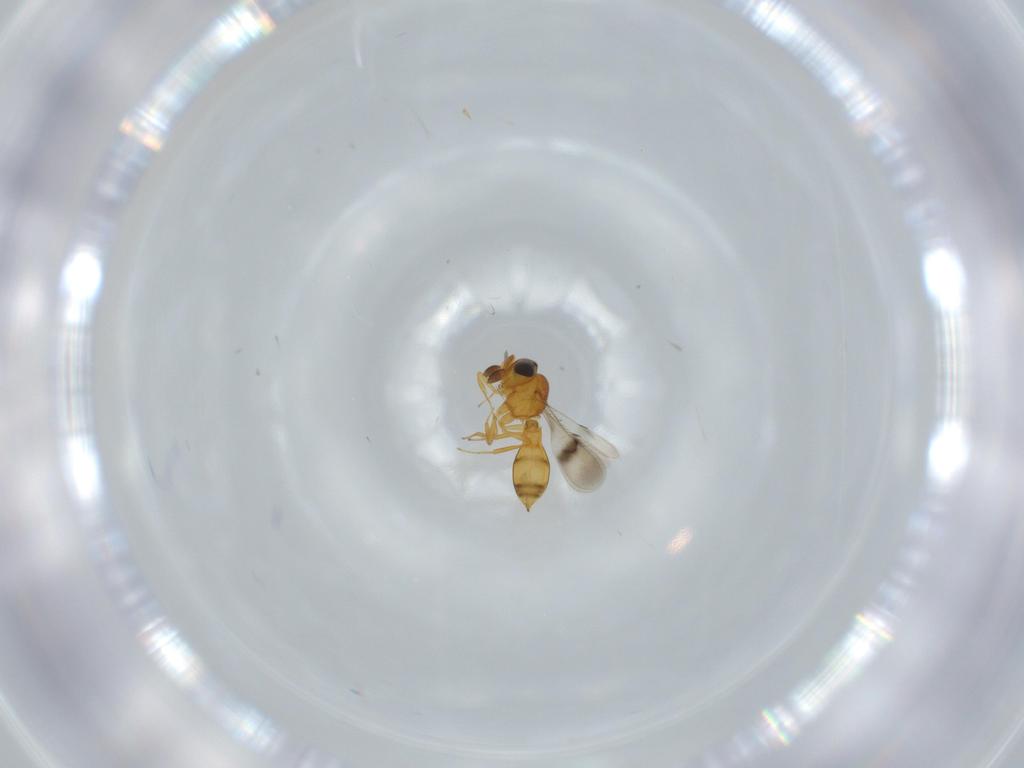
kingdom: Animalia
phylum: Arthropoda
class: Insecta
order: Hymenoptera
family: Scelionidae
